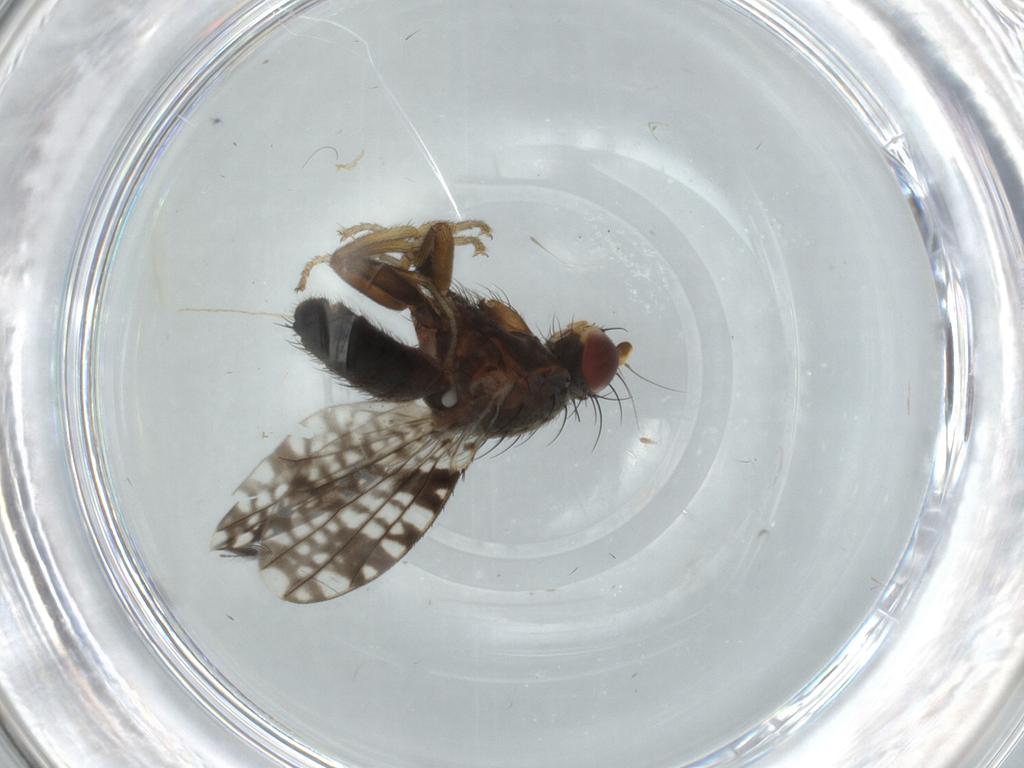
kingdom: Animalia
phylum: Arthropoda
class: Insecta
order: Diptera
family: Tephritidae
